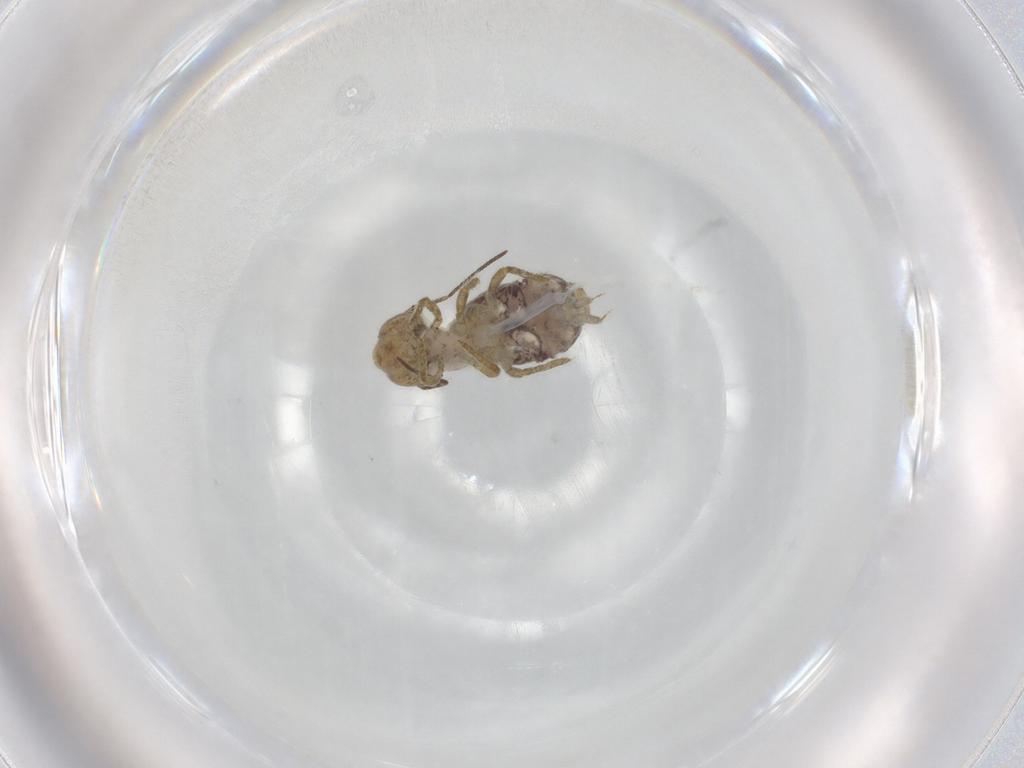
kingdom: Animalia
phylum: Arthropoda
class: Collembola
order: Symphypleona
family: Sminthuridae
